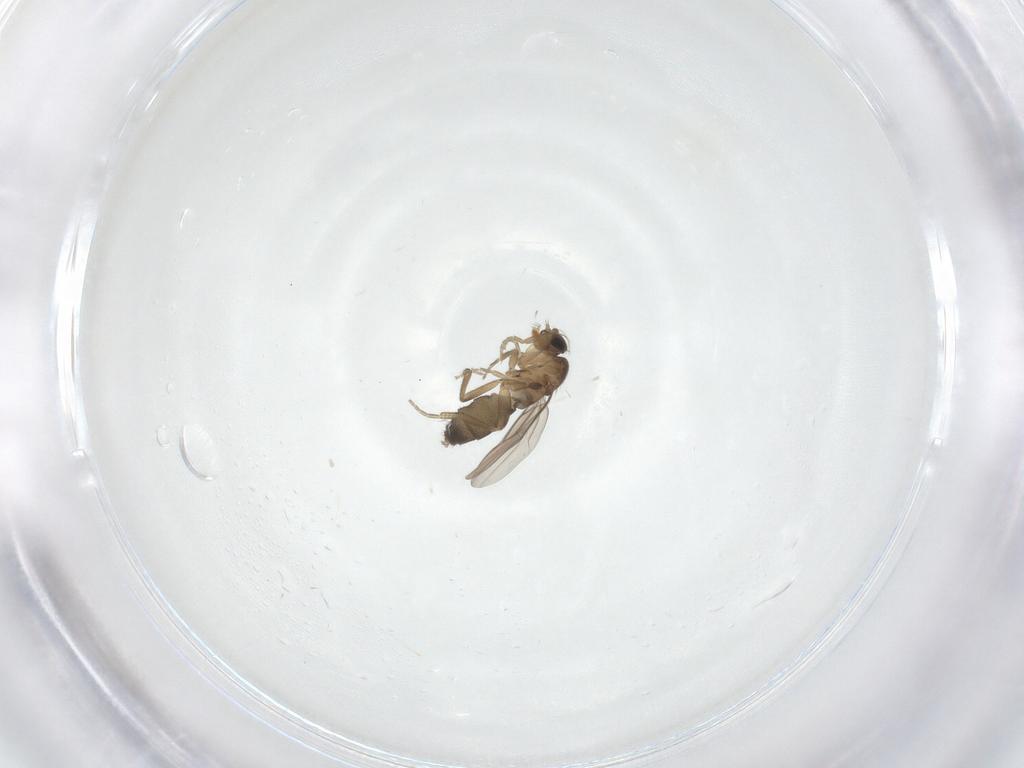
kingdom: Animalia
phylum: Arthropoda
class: Insecta
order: Diptera
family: Phoridae
